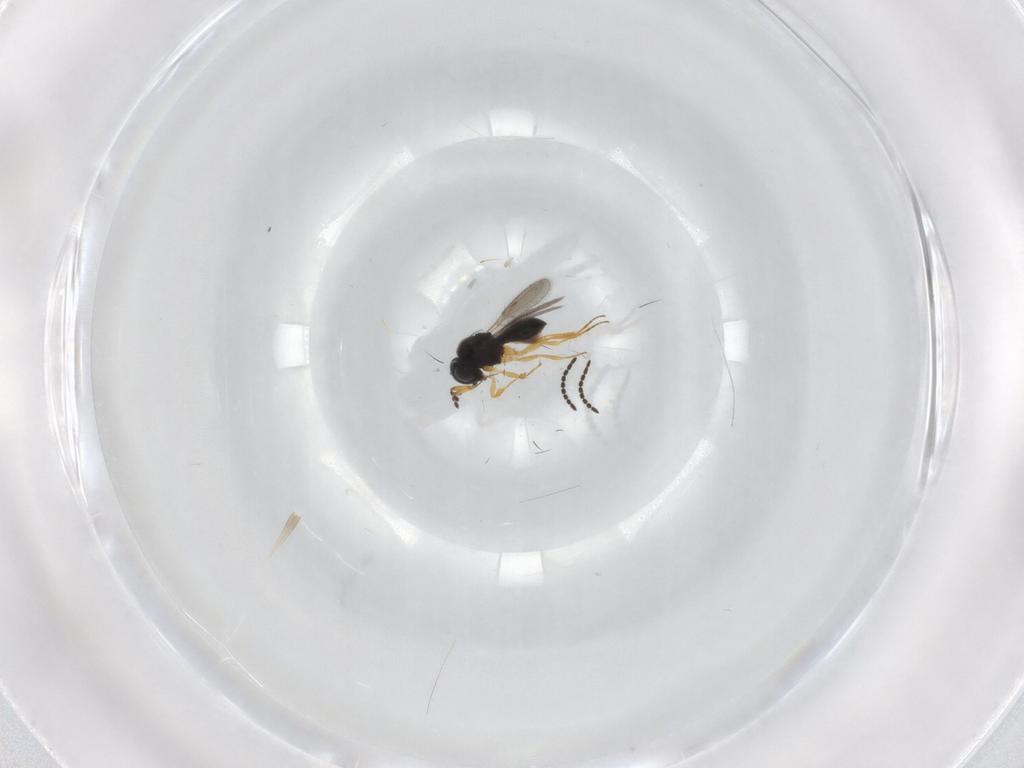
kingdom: Animalia
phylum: Arthropoda
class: Insecta
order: Hymenoptera
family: Scelionidae
